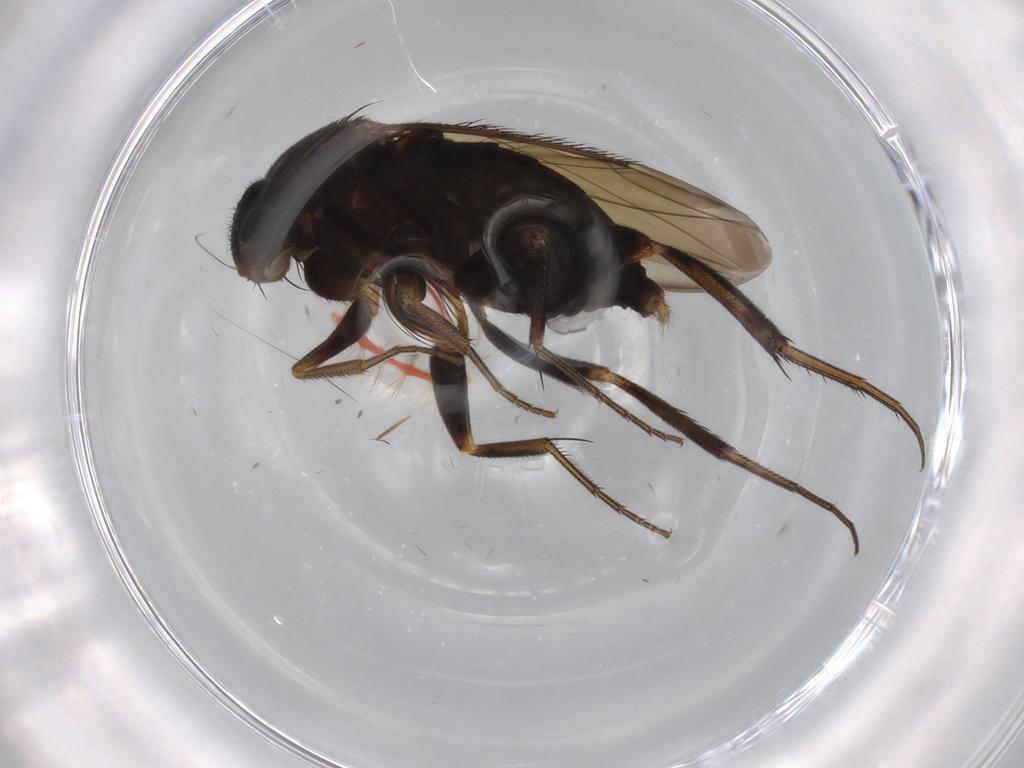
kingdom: Animalia
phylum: Arthropoda
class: Insecta
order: Diptera
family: Phoridae
